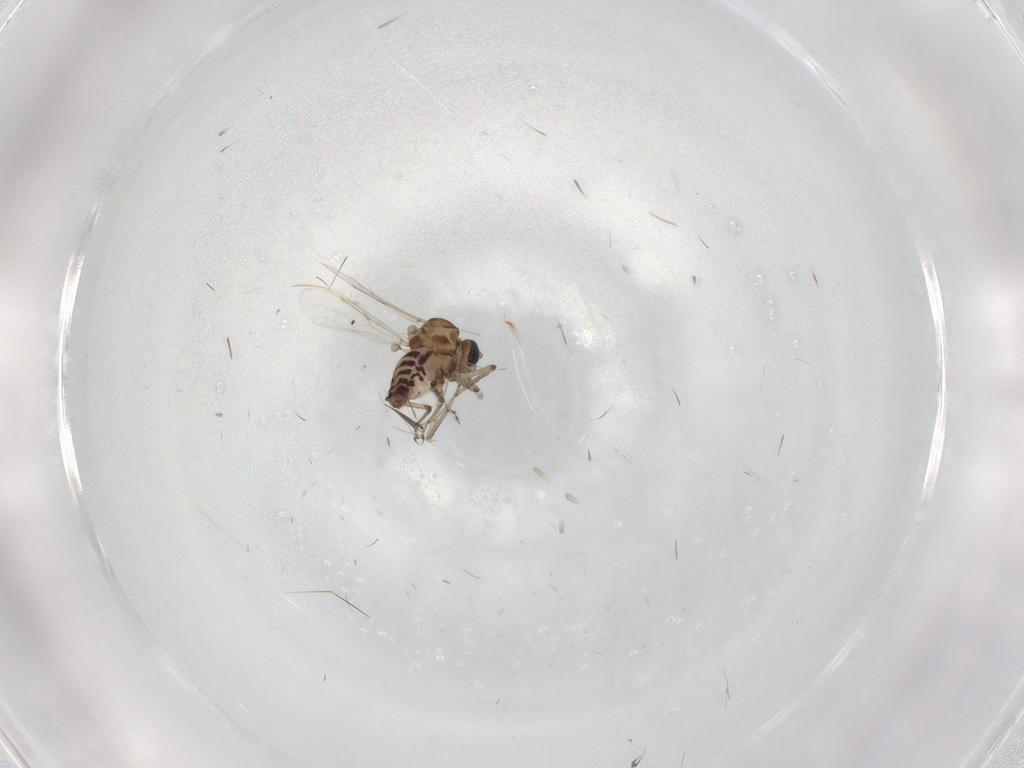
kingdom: Animalia
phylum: Arthropoda
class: Insecta
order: Diptera
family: Ceratopogonidae
